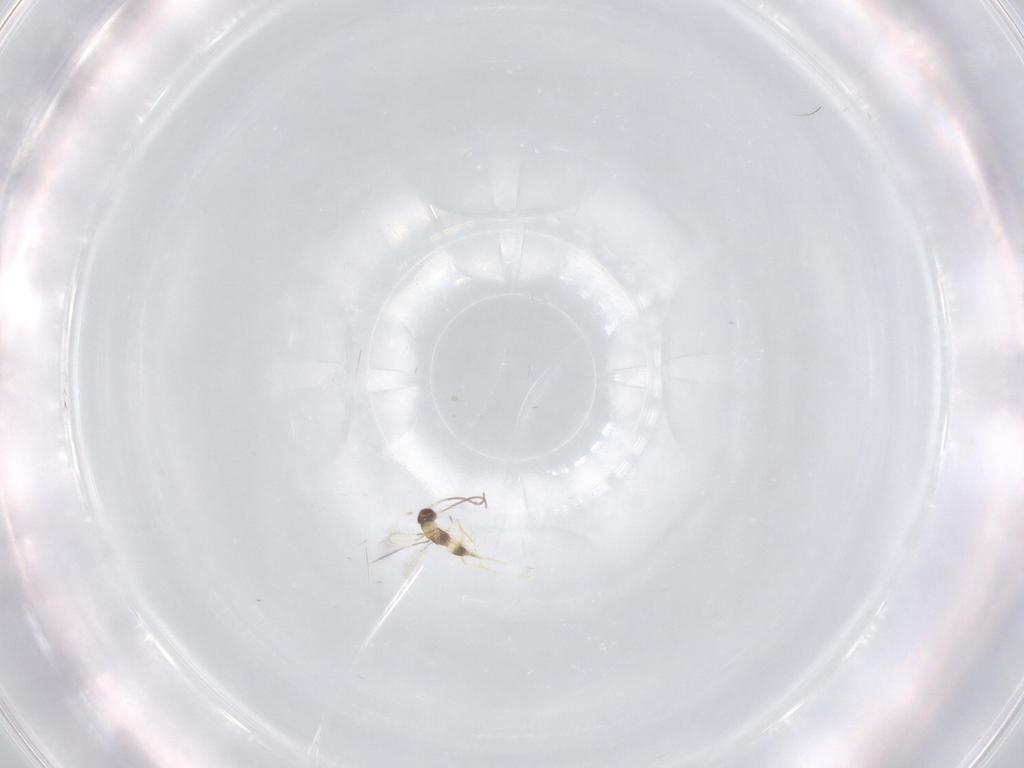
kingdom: Animalia
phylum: Arthropoda
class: Insecta
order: Hymenoptera
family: Mymaridae
